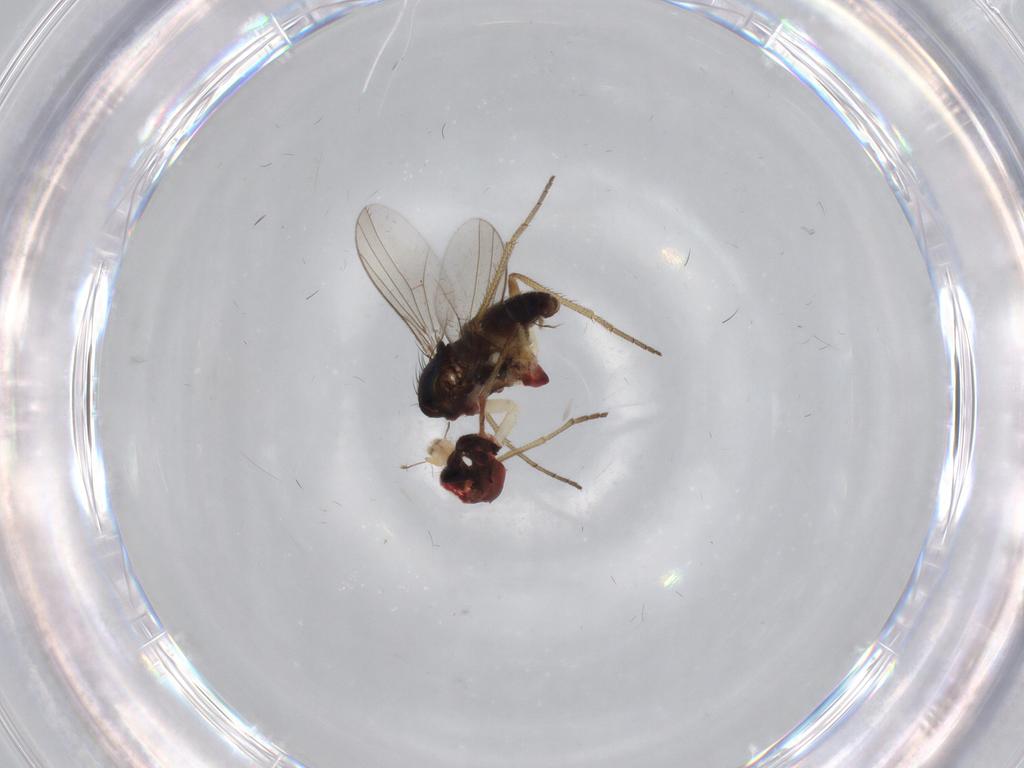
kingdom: Animalia
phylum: Arthropoda
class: Insecta
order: Diptera
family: Dolichopodidae
